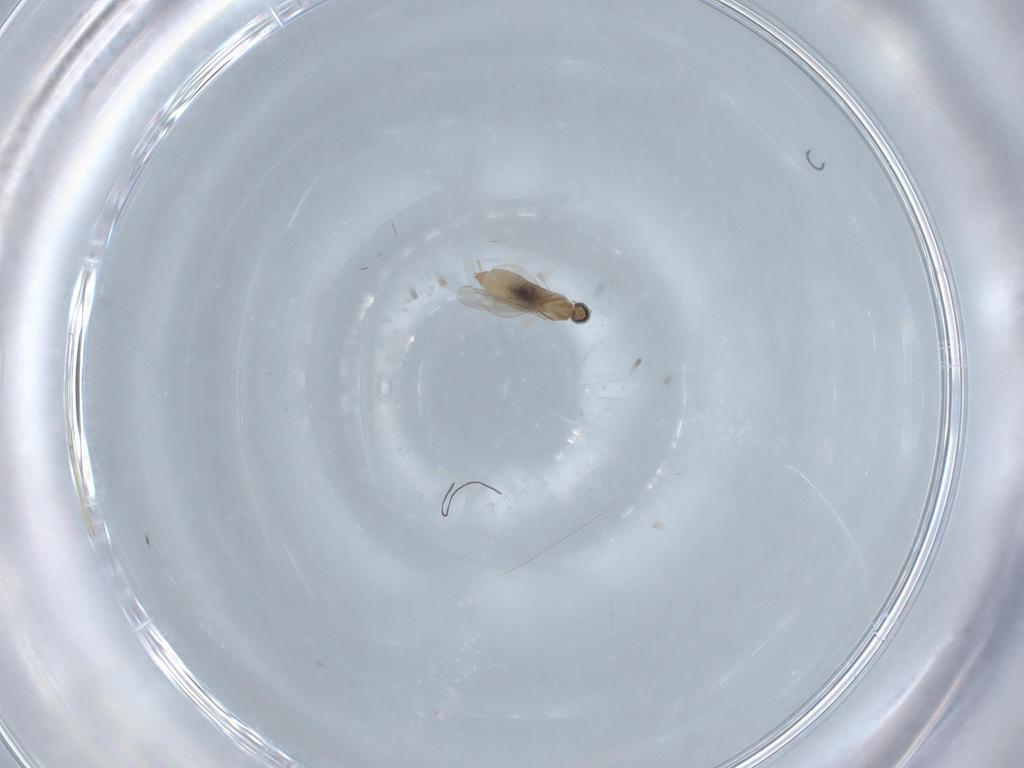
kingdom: Animalia
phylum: Arthropoda
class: Insecta
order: Diptera
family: Cecidomyiidae
